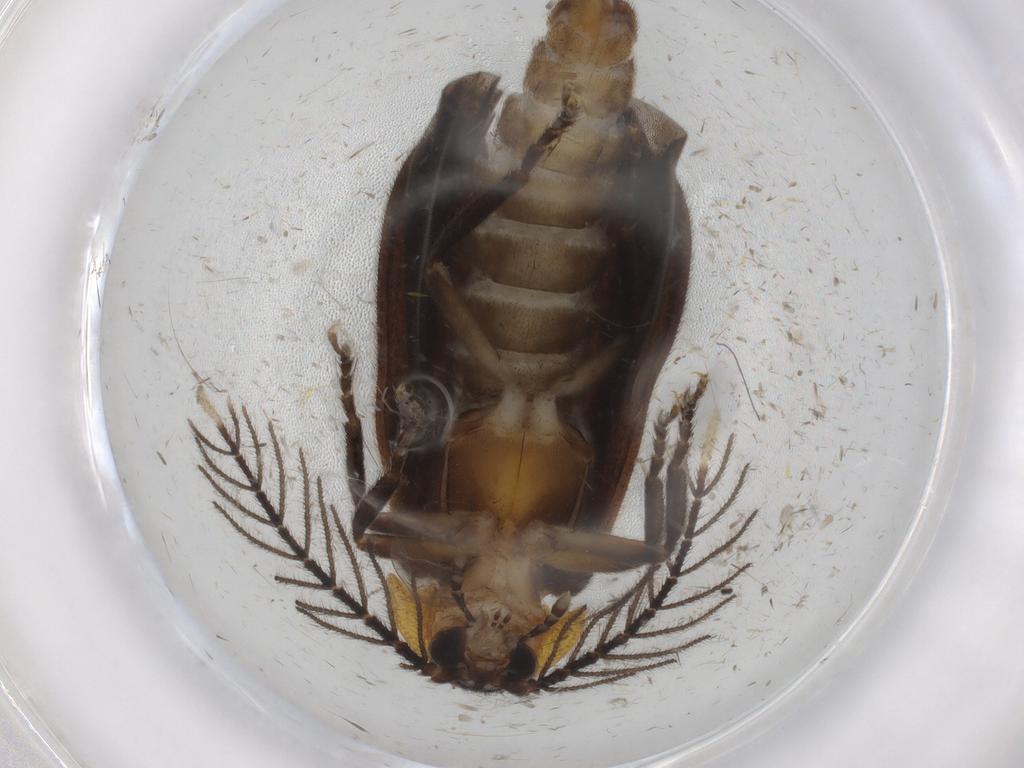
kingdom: Animalia
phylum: Arthropoda
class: Insecta
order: Coleoptera
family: Lampyridae
